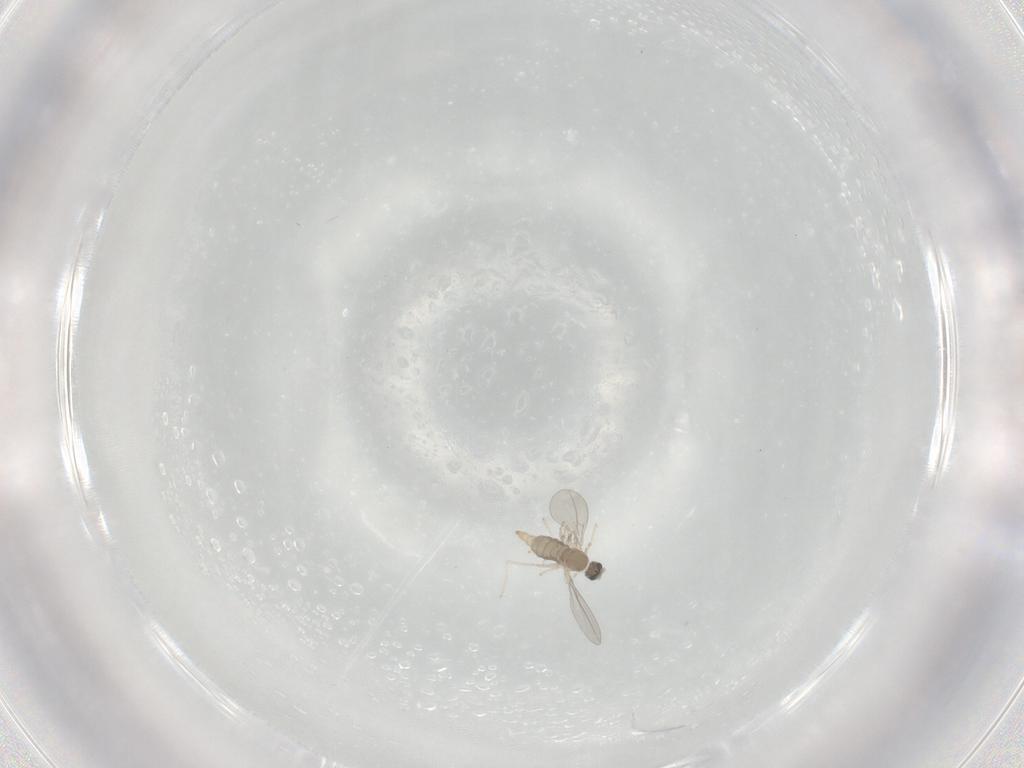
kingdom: Animalia
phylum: Arthropoda
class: Insecta
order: Diptera
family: Cecidomyiidae
